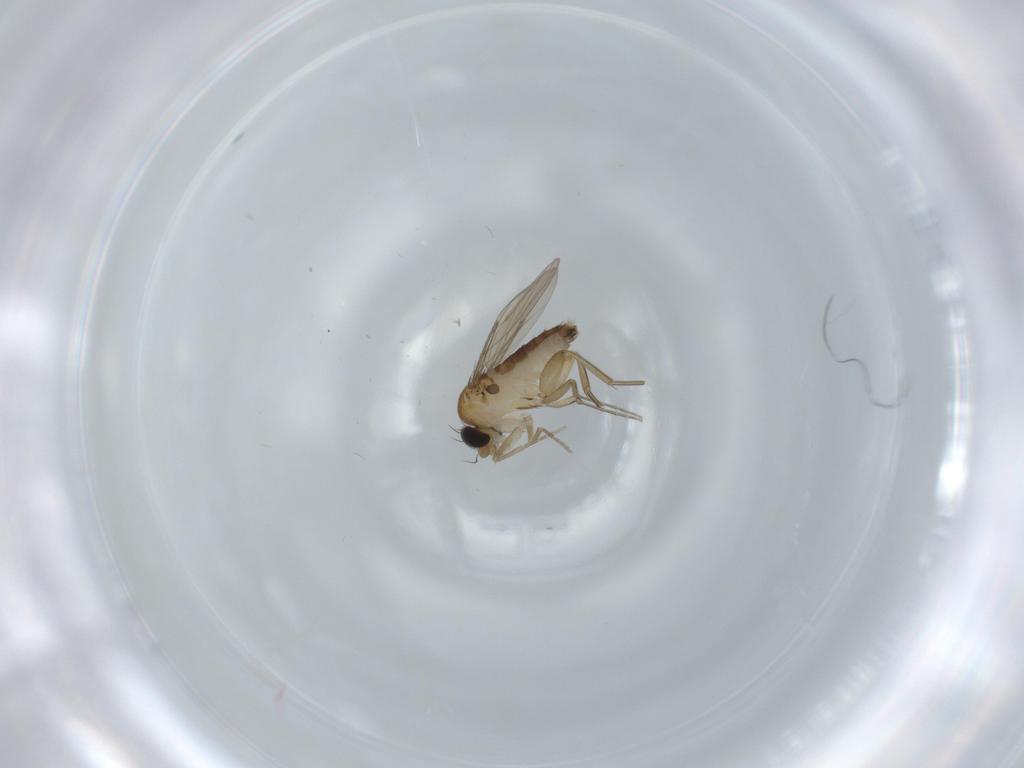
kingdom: Animalia
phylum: Arthropoda
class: Insecta
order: Diptera
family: Phoridae
